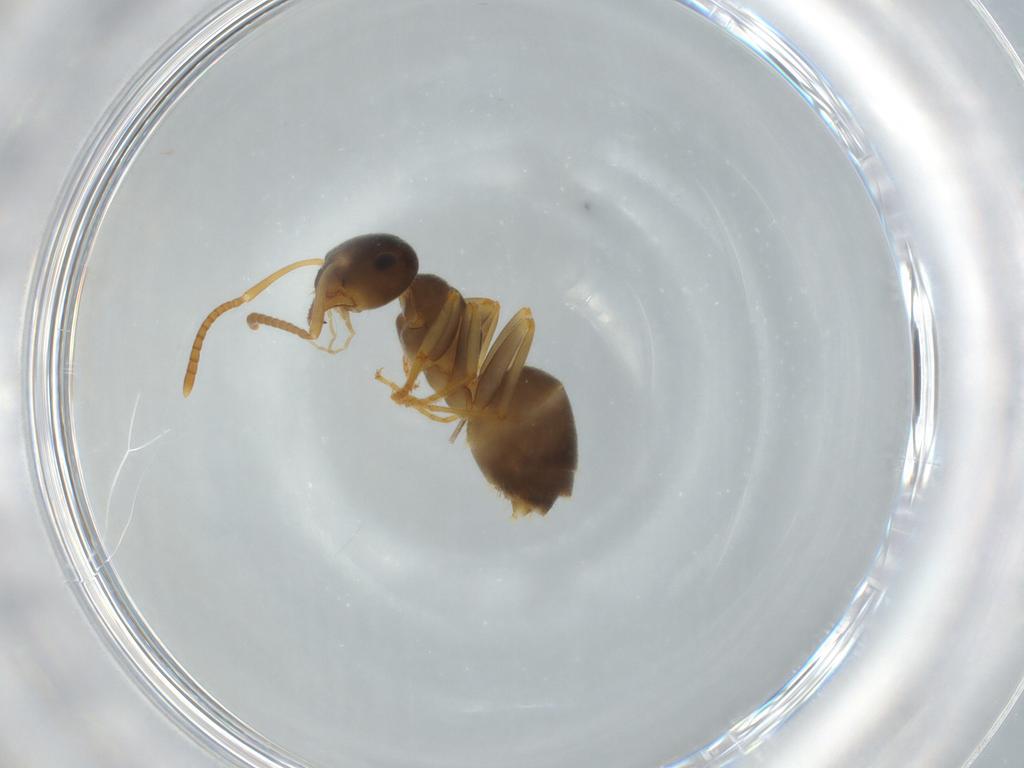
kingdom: Animalia
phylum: Arthropoda
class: Insecta
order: Hymenoptera
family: Formicidae
